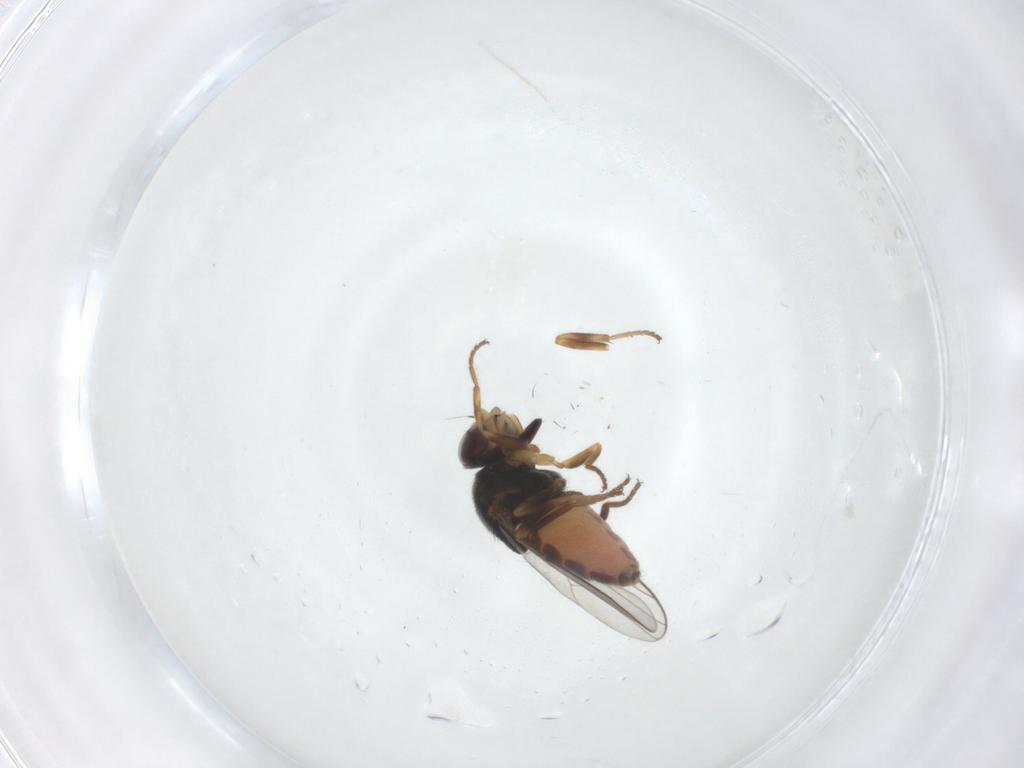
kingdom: Animalia
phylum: Arthropoda
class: Insecta
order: Diptera
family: Chloropidae
